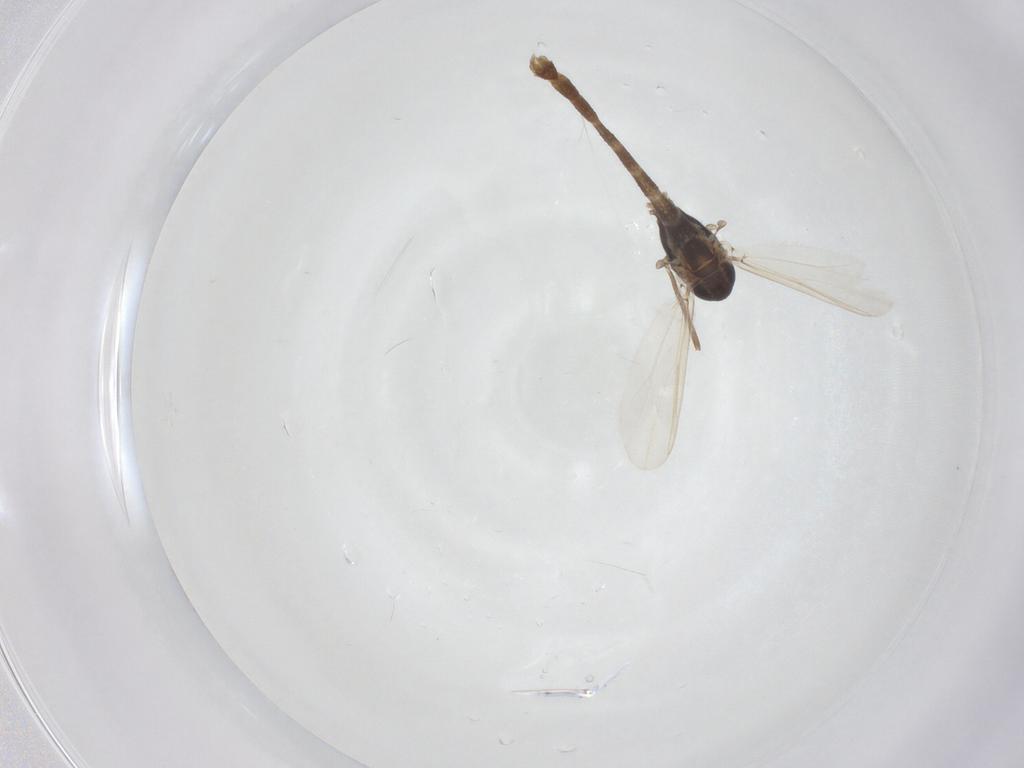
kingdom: Animalia
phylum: Arthropoda
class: Insecta
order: Diptera
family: Chironomidae
